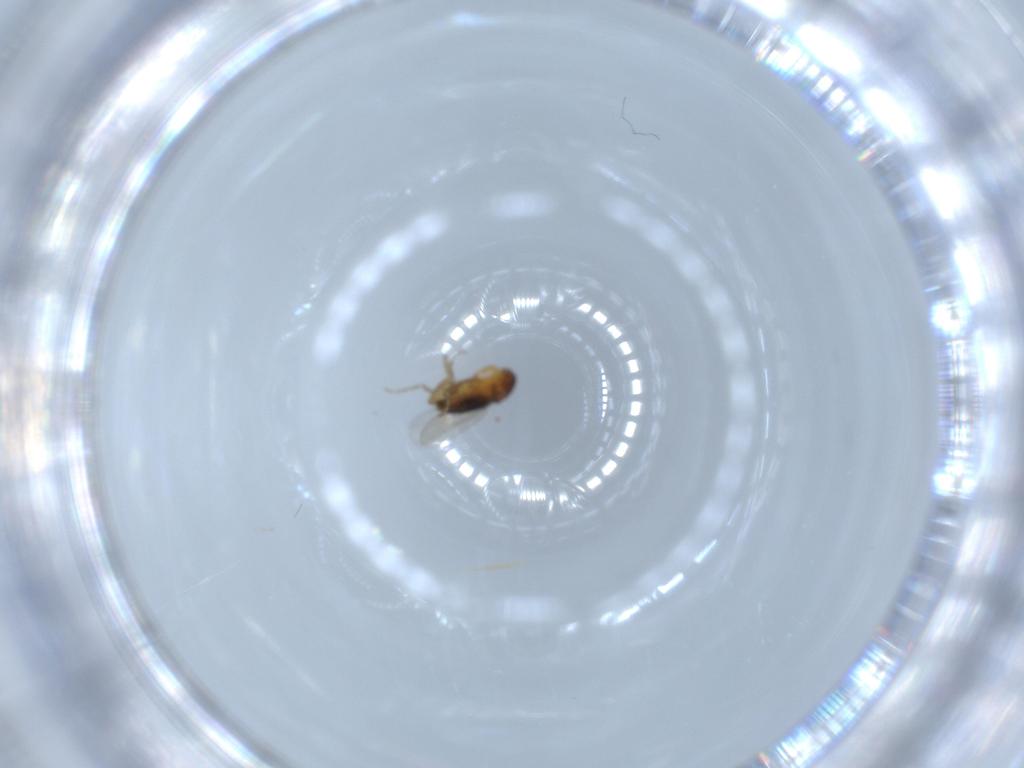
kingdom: Animalia
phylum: Arthropoda
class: Insecta
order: Coleoptera
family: Bostrichidae
